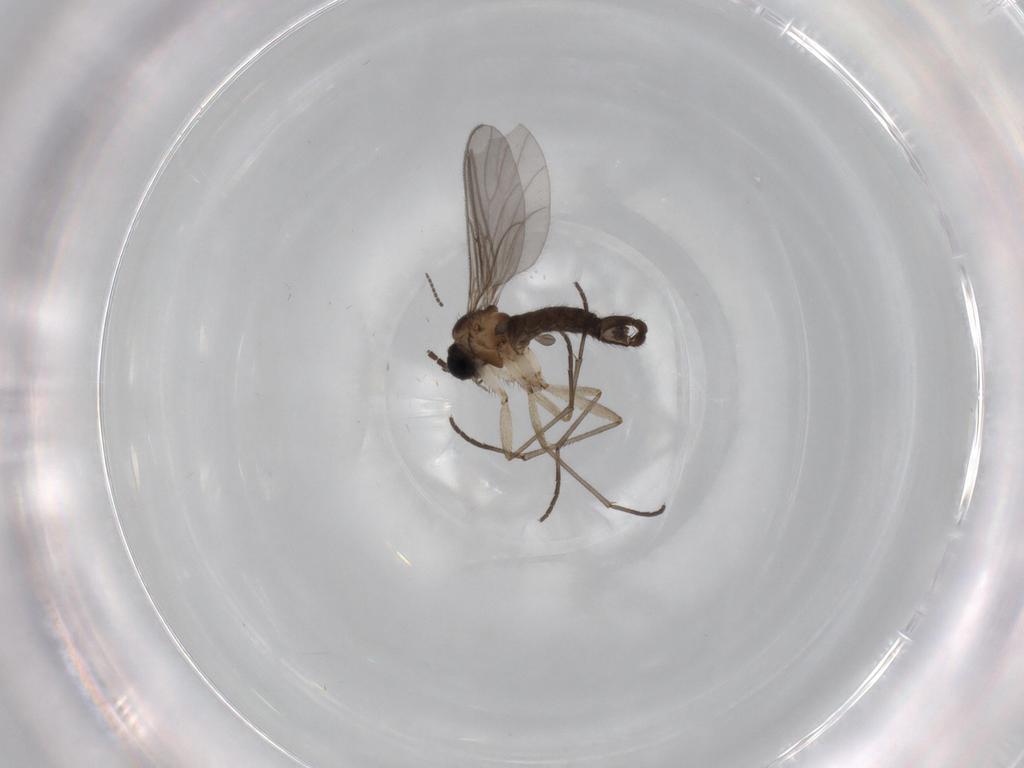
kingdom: Animalia
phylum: Arthropoda
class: Insecta
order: Diptera
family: Sciaridae
